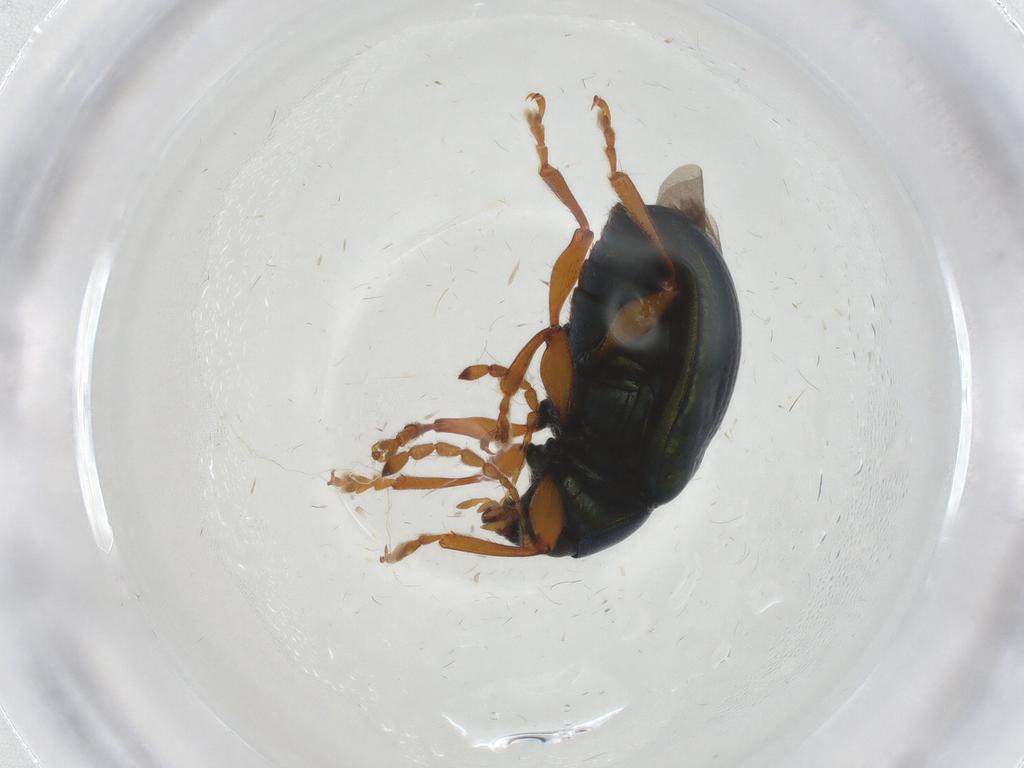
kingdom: Animalia
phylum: Arthropoda
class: Insecta
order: Coleoptera
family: Chrysomelidae
